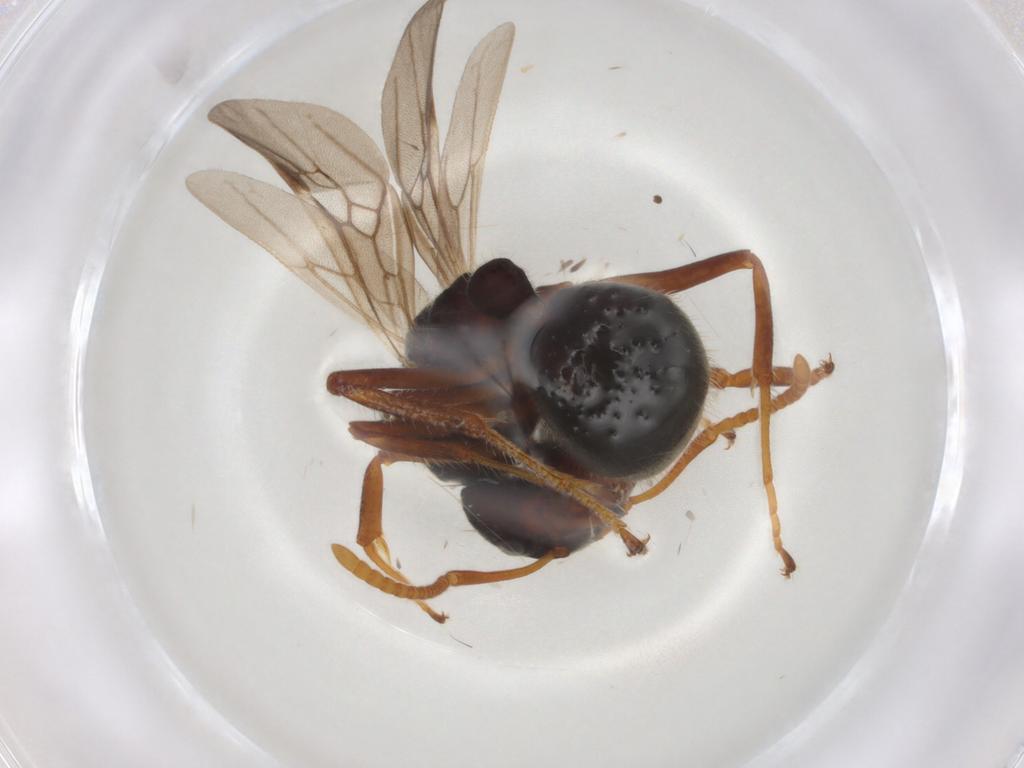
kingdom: Animalia
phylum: Arthropoda
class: Insecta
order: Hymenoptera
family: Formicidae
